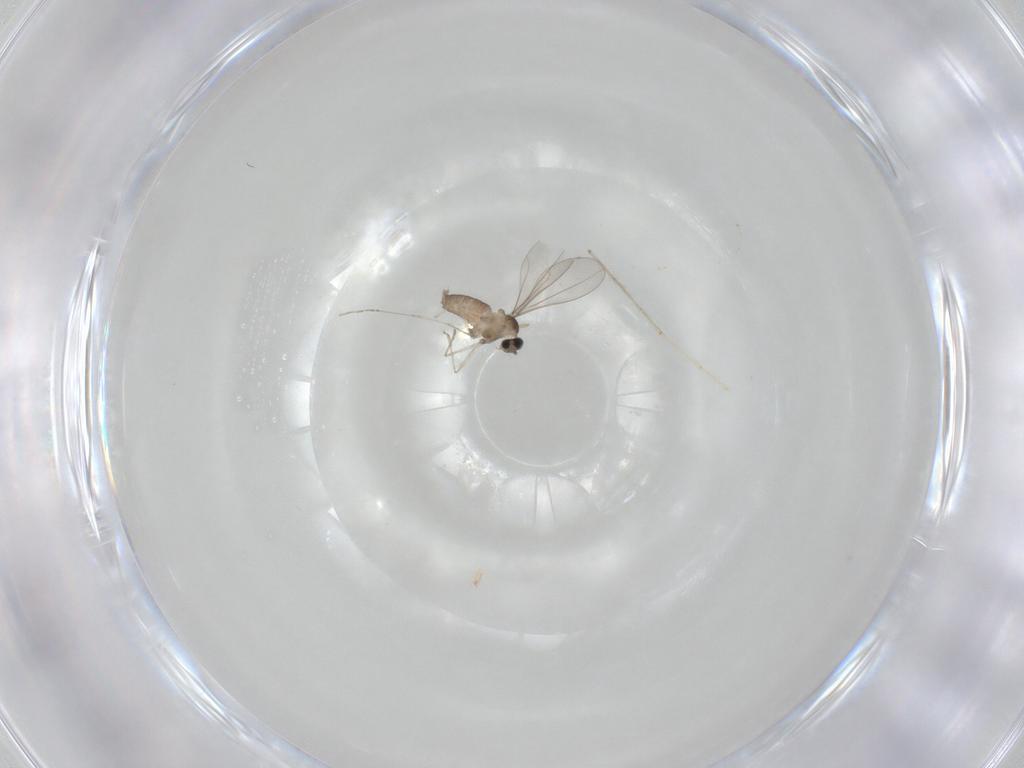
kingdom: Animalia
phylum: Arthropoda
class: Insecta
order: Diptera
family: Cecidomyiidae
